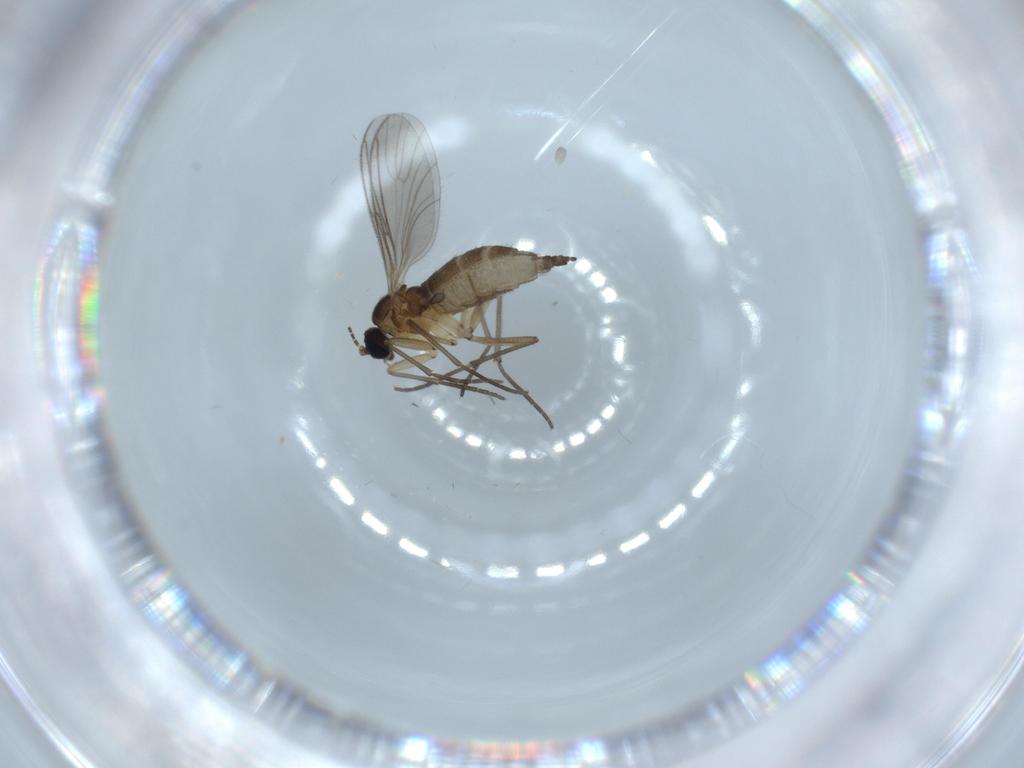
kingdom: Animalia
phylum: Arthropoda
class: Insecta
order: Diptera
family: Sciaridae
